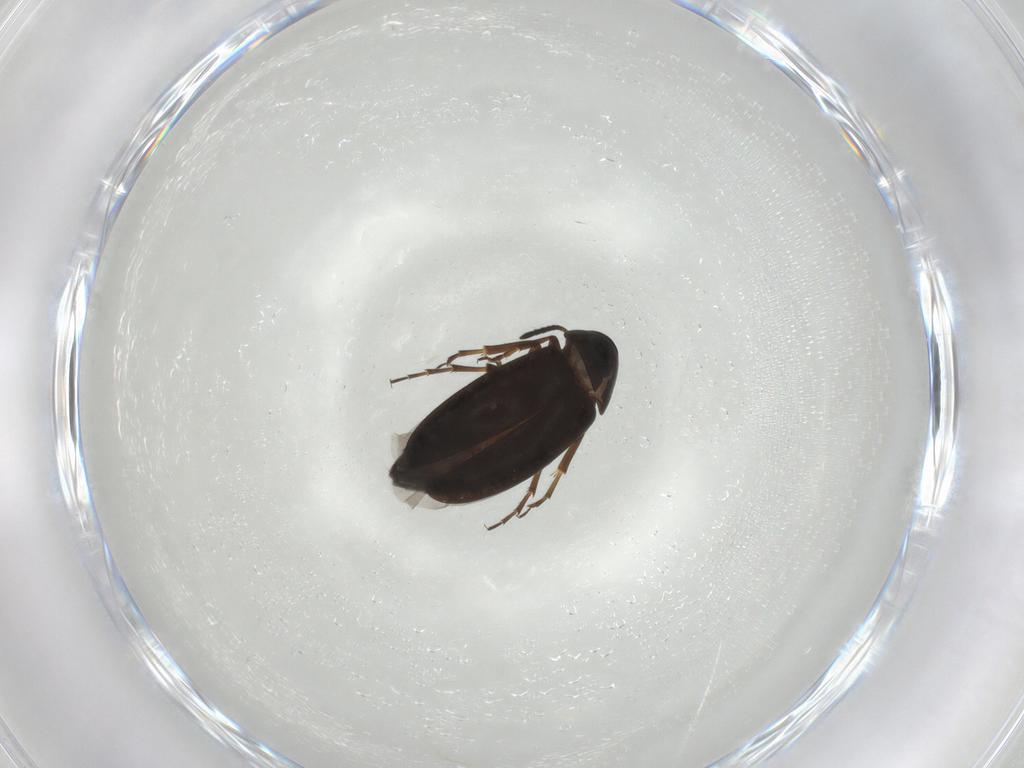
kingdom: Animalia
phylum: Arthropoda
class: Insecta
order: Coleoptera
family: Scraptiidae
